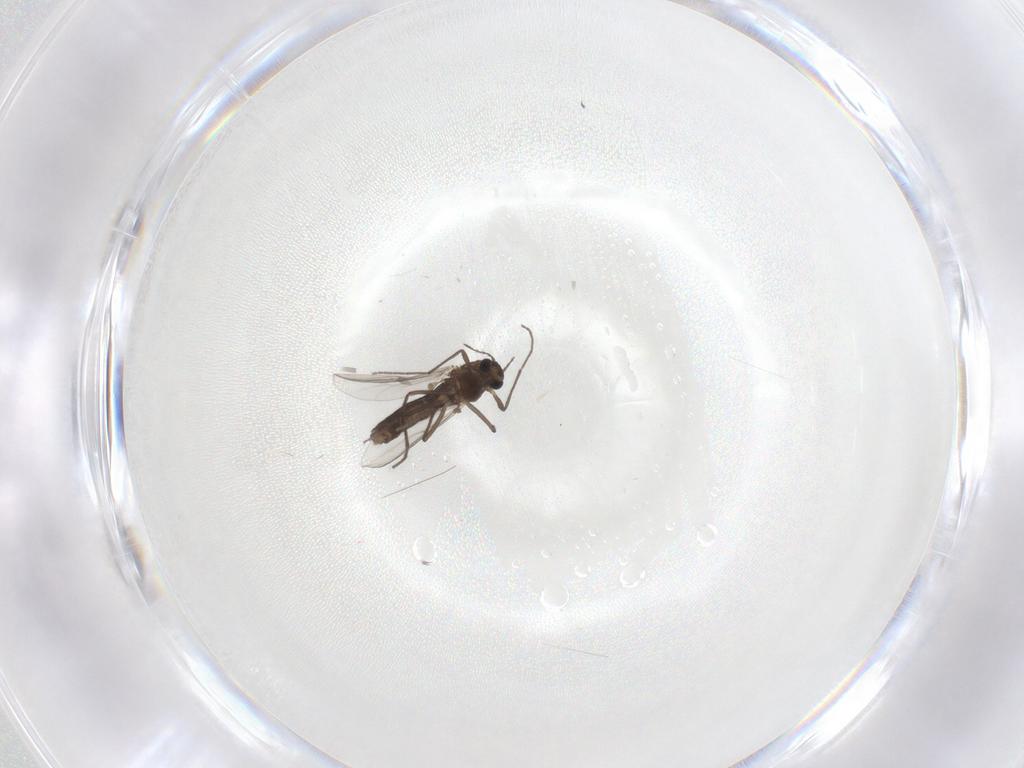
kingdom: Animalia
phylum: Arthropoda
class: Insecta
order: Diptera
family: Chironomidae
